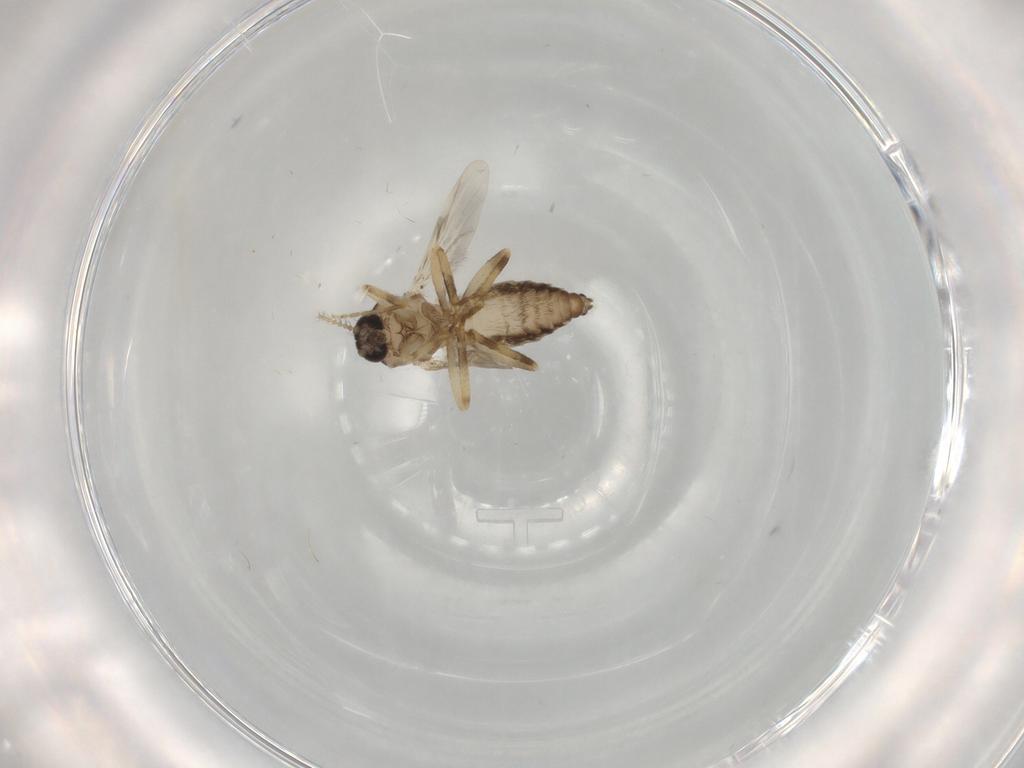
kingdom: Animalia
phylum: Arthropoda
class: Insecta
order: Diptera
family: Ceratopogonidae
